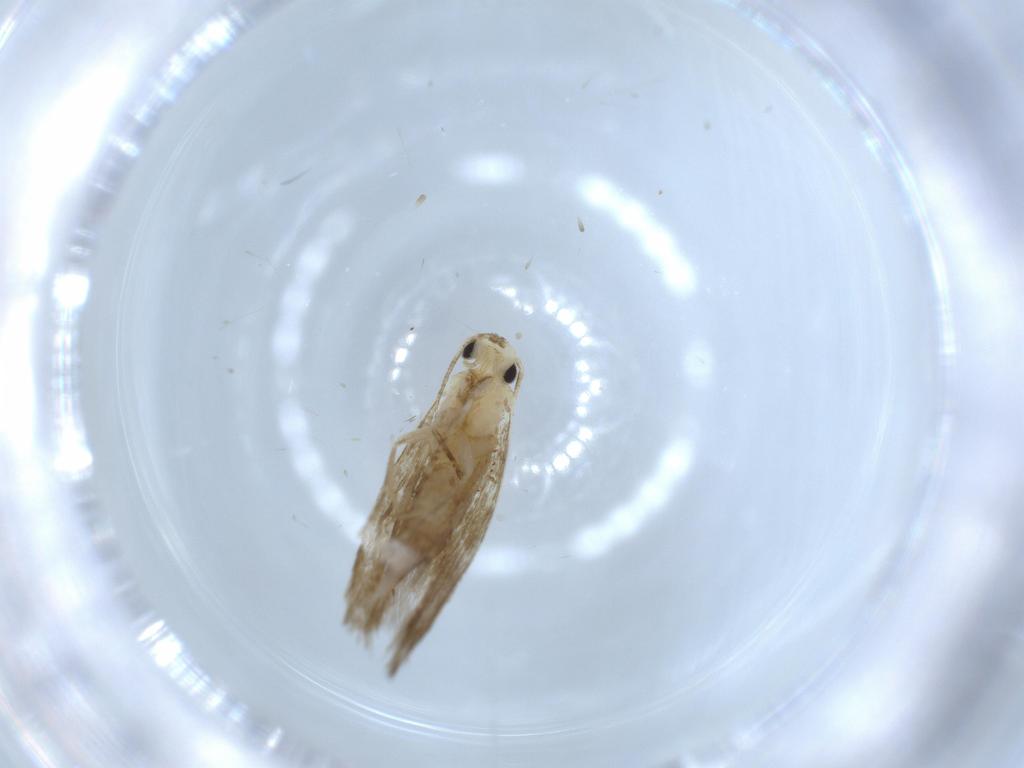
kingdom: Animalia
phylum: Arthropoda
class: Insecta
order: Lepidoptera
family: Tineidae
